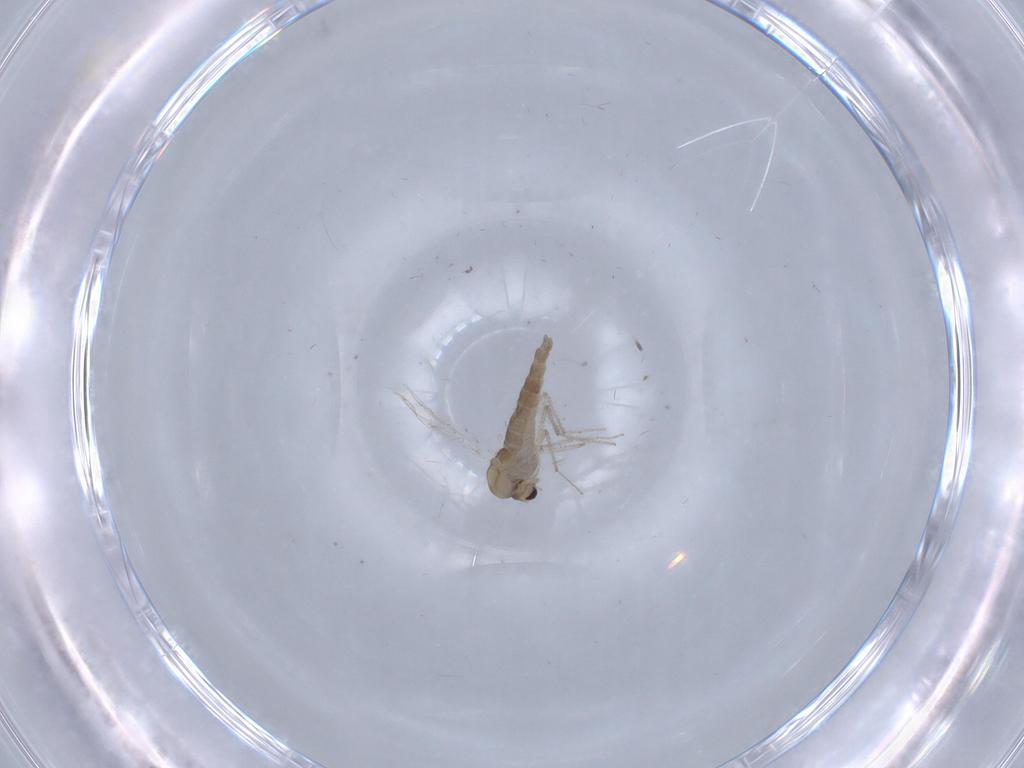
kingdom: Animalia
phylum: Arthropoda
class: Insecta
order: Diptera
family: Chironomidae
